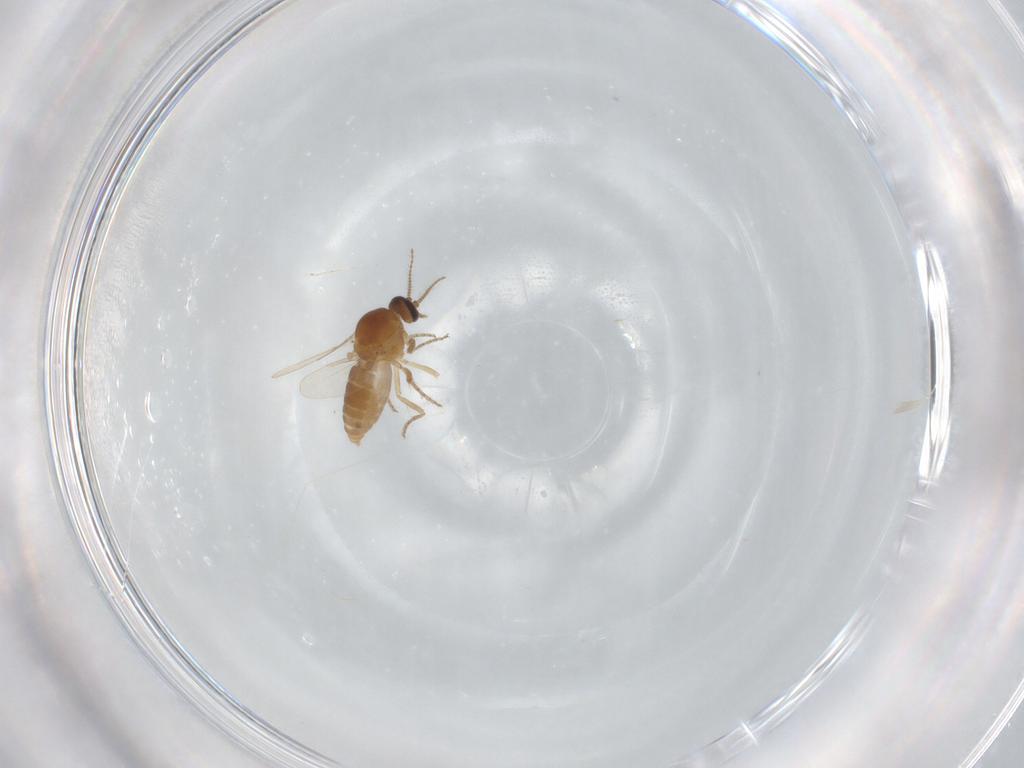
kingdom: Animalia
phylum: Arthropoda
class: Insecta
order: Diptera
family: Ceratopogonidae
